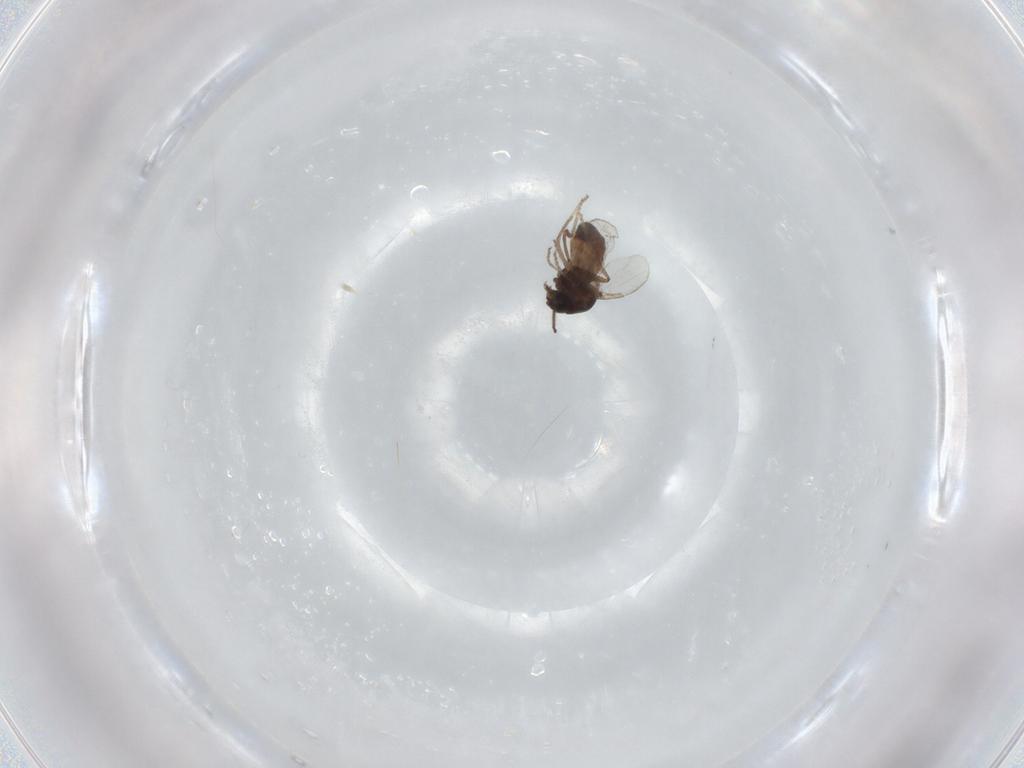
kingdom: Animalia
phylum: Arthropoda
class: Insecta
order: Diptera
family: Ceratopogonidae
